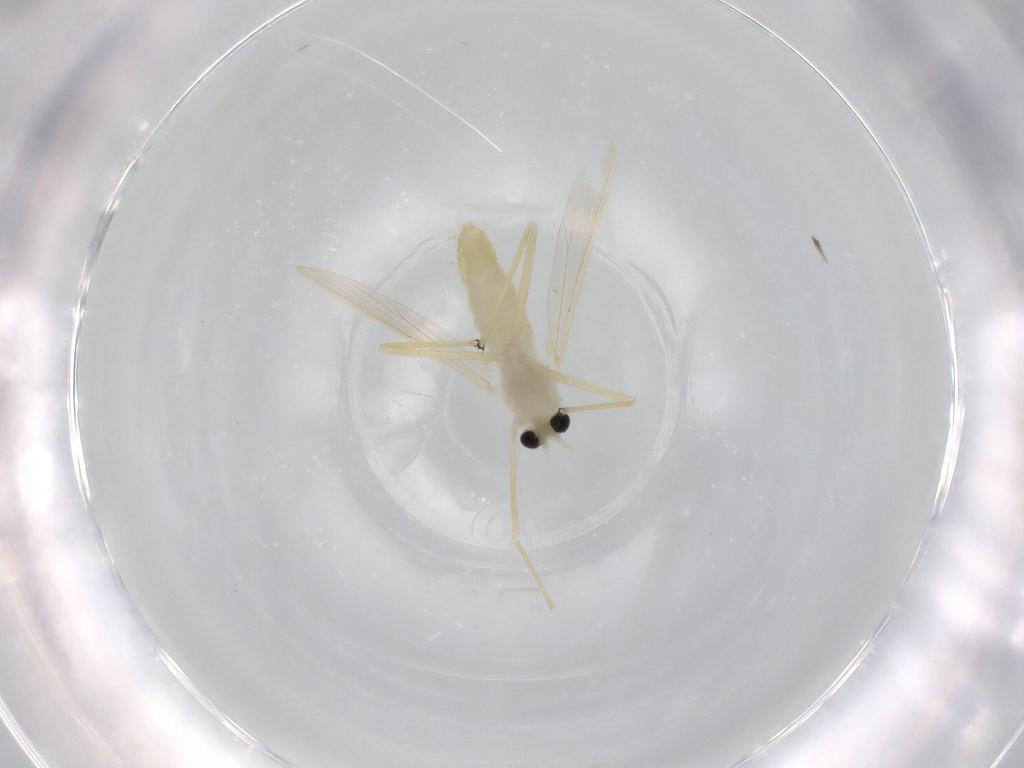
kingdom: Animalia
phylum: Arthropoda
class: Insecta
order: Diptera
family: Chironomidae
